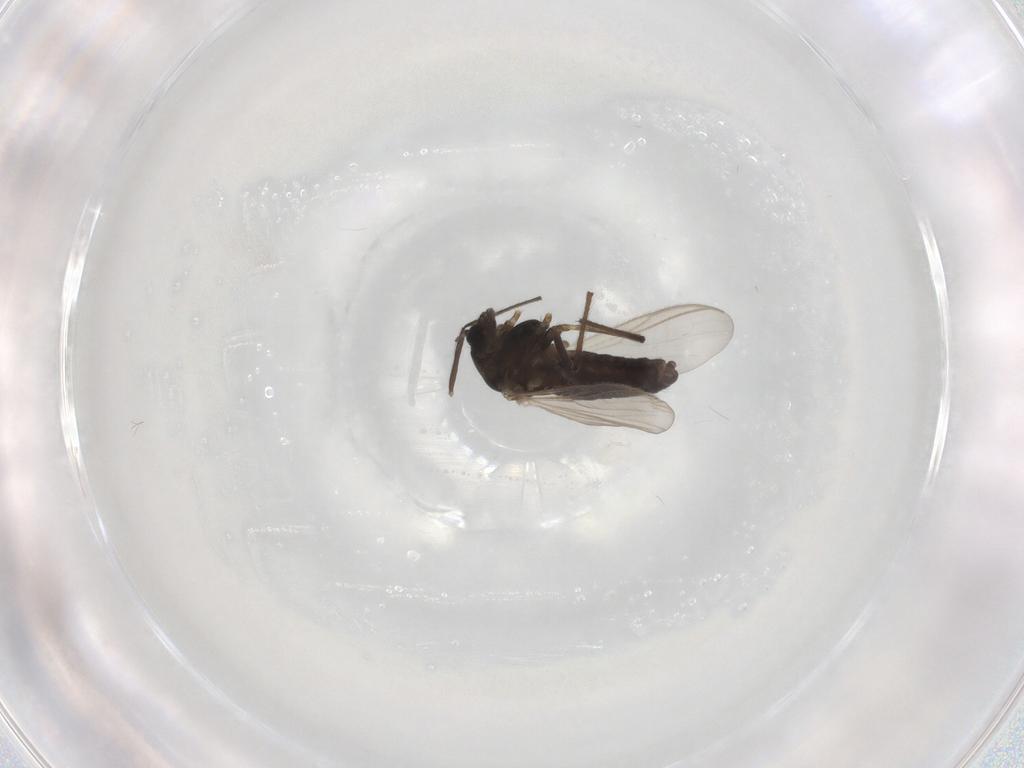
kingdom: Animalia
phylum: Arthropoda
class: Insecta
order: Diptera
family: Chironomidae
